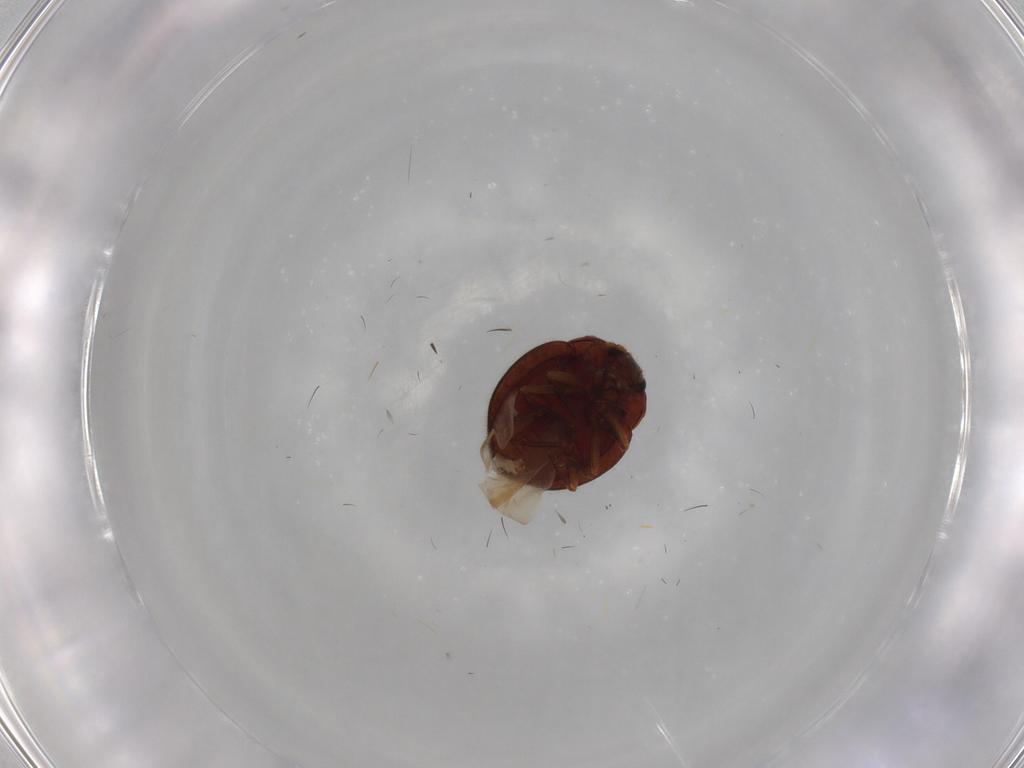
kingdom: Animalia
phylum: Arthropoda
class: Insecta
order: Coleoptera
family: Anamorphidae
